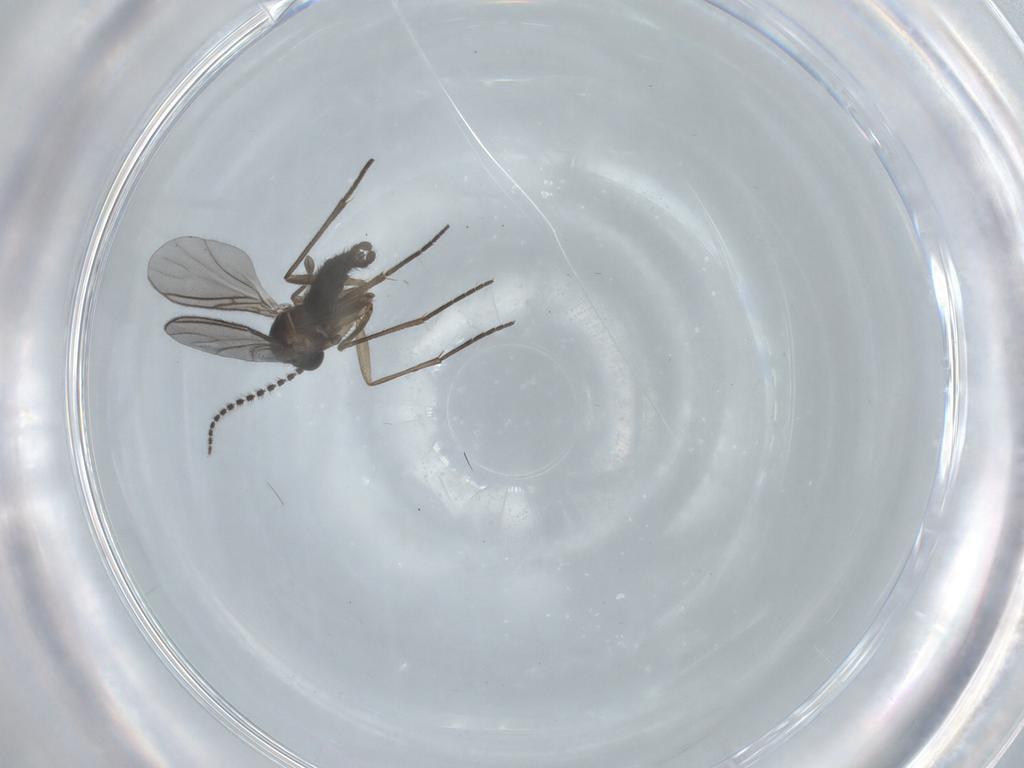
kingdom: Animalia
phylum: Arthropoda
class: Insecta
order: Diptera
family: Sciaridae
